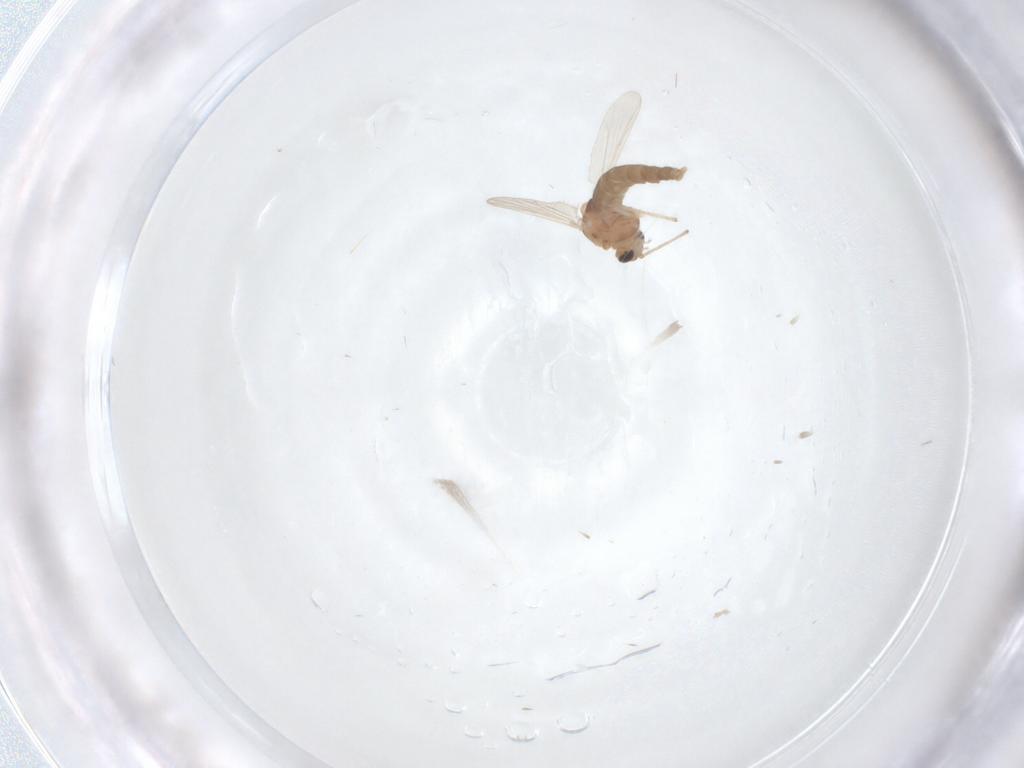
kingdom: Animalia
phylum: Arthropoda
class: Insecta
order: Diptera
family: Chironomidae
